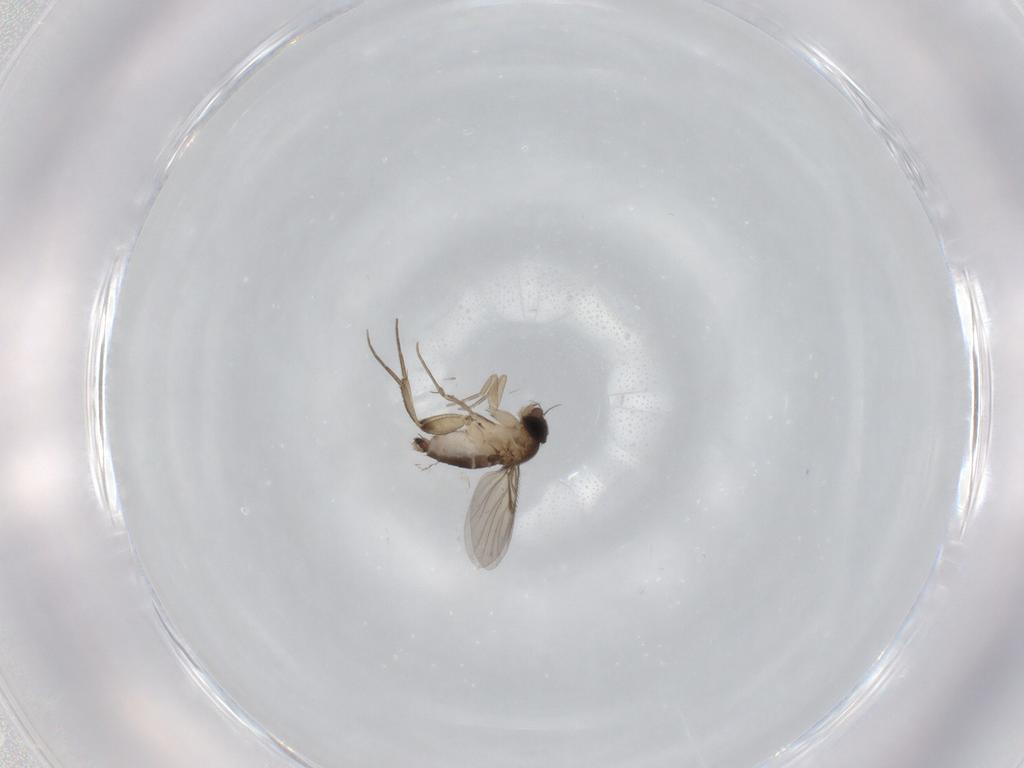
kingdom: Animalia
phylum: Arthropoda
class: Insecta
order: Diptera
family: Phoridae
